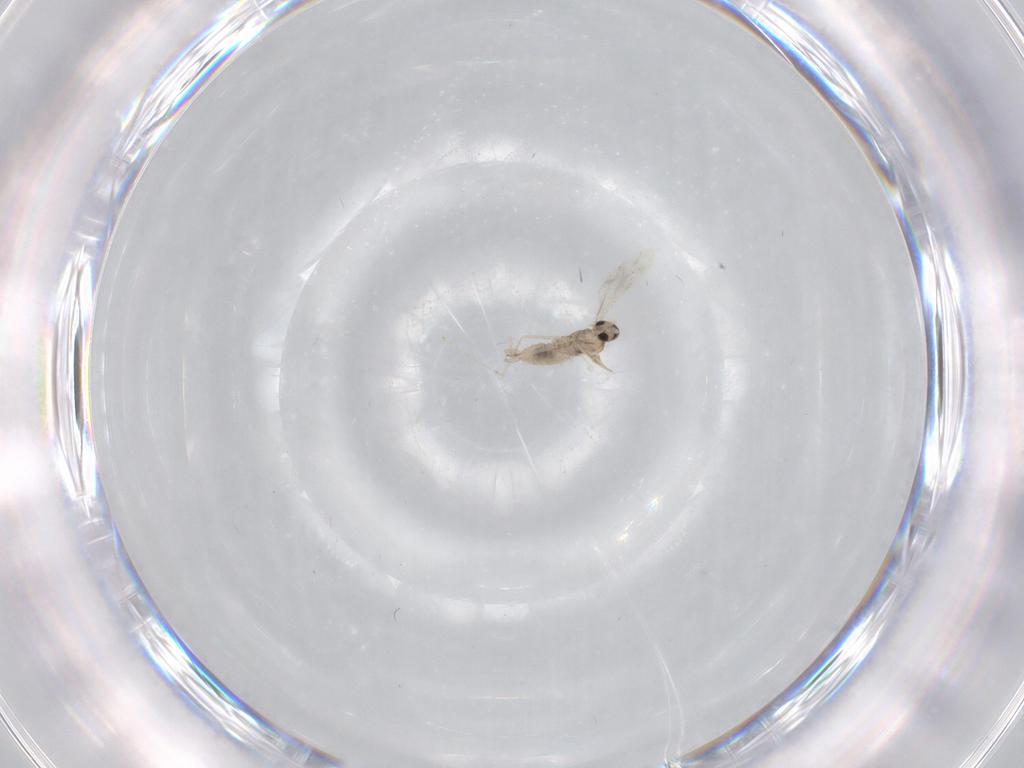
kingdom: Animalia
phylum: Arthropoda
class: Insecta
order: Diptera
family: Cecidomyiidae
